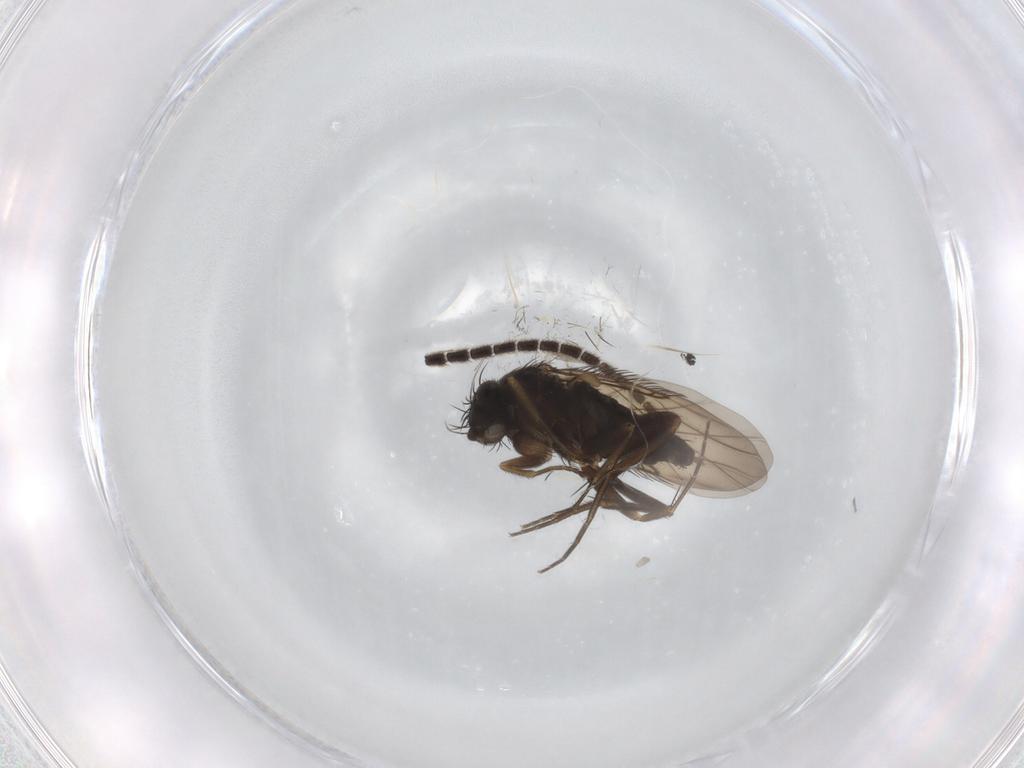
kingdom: Animalia
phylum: Arthropoda
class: Insecta
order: Diptera
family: Phoridae
